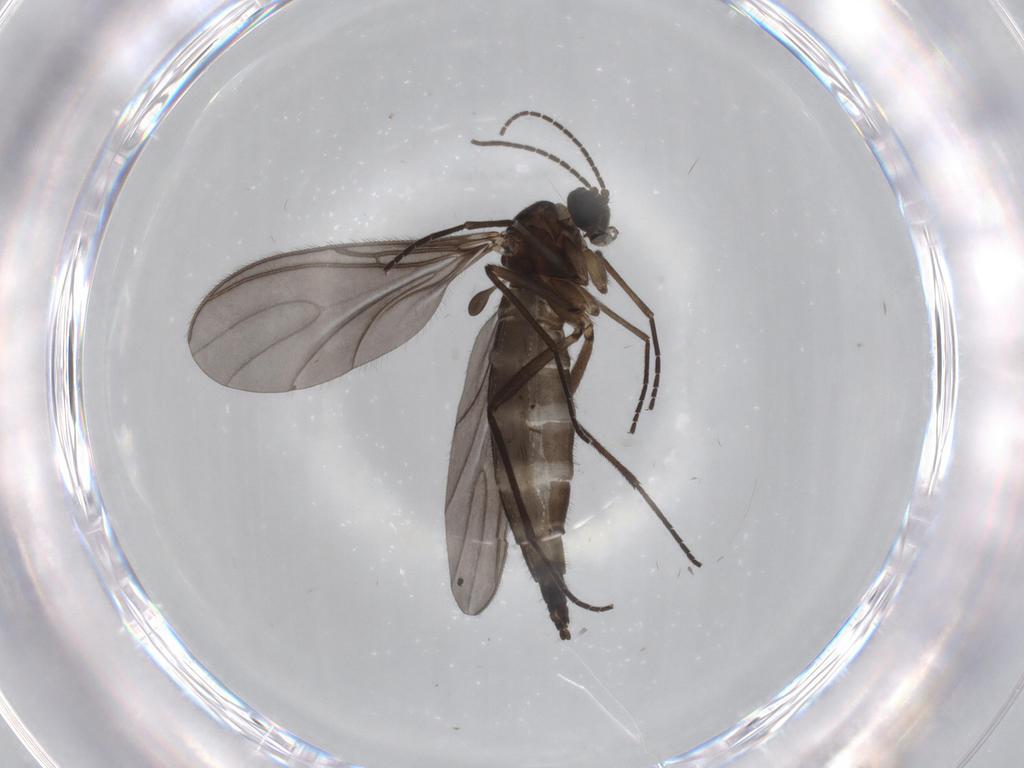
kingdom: Animalia
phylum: Arthropoda
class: Insecta
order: Diptera
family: Sciaridae
